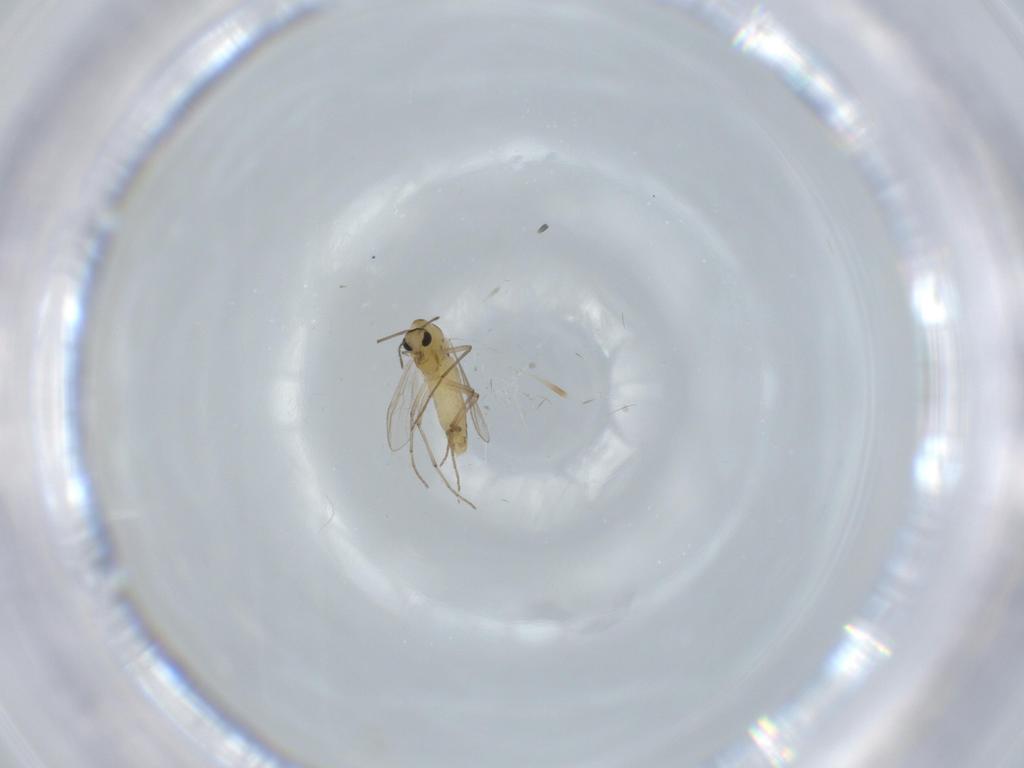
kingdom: Animalia
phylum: Arthropoda
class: Insecta
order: Diptera
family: Chironomidae
